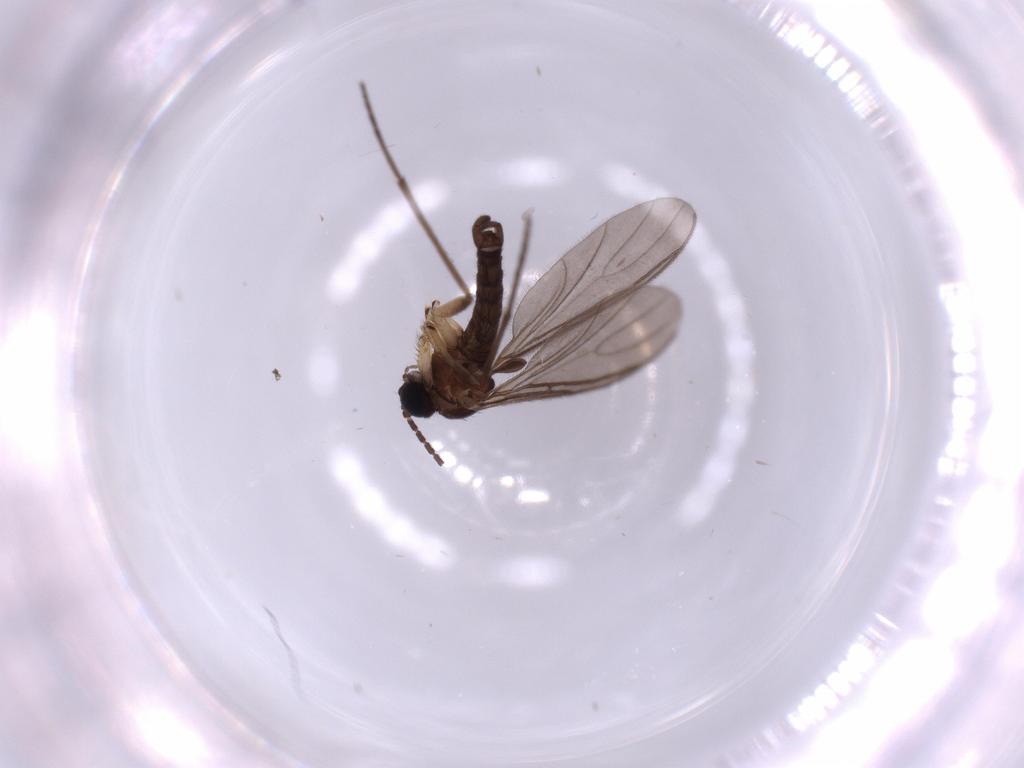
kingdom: Animalia
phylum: Arthropoda
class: Insecta
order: Diptera
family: Sciaridae
